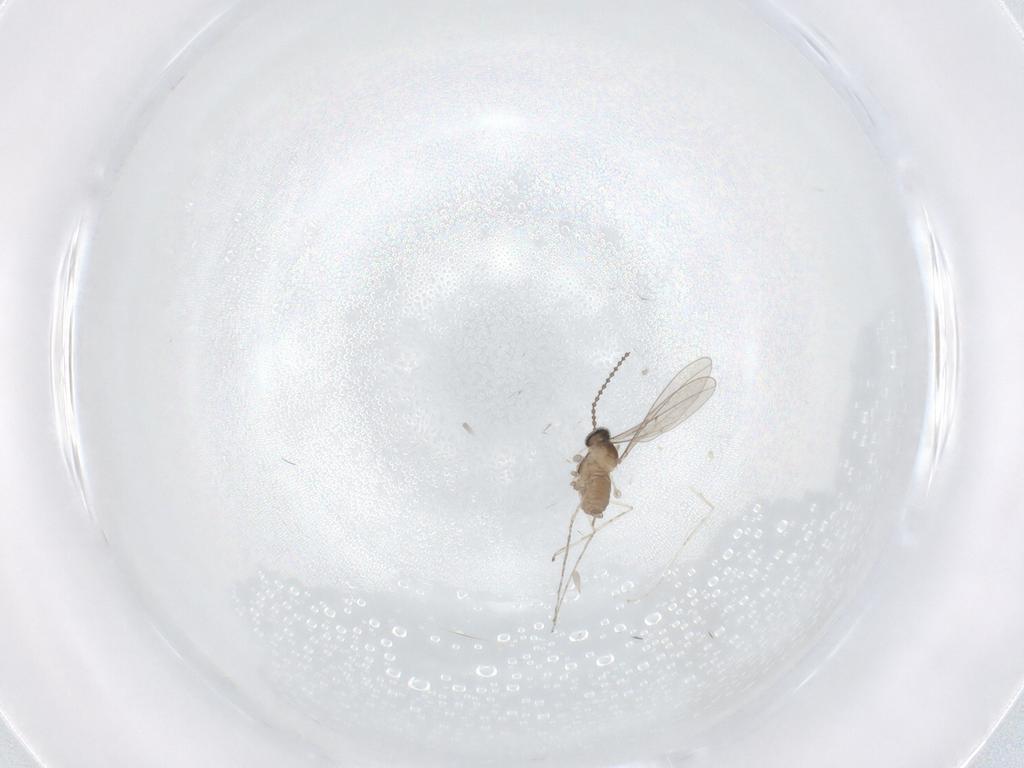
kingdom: Animalia
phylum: Arthropoda
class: Insecta
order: Diptera
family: Cecidomyiidae
